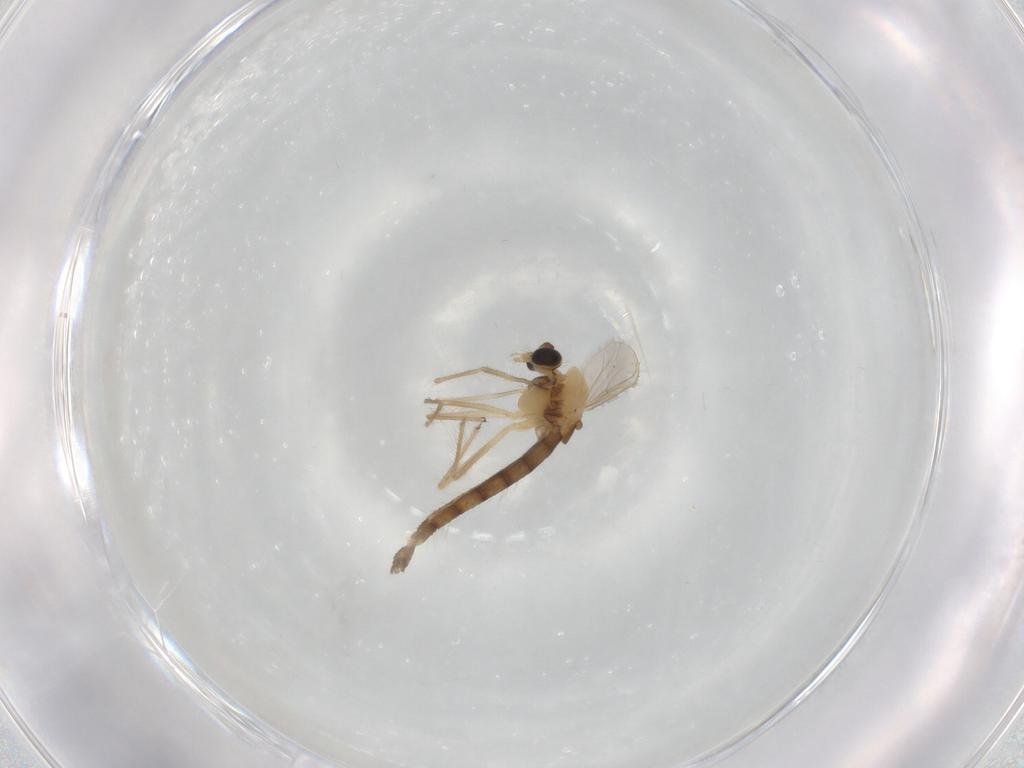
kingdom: Animalia
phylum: Arthropoda
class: Insecta
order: Diptera
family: Chironomidae
